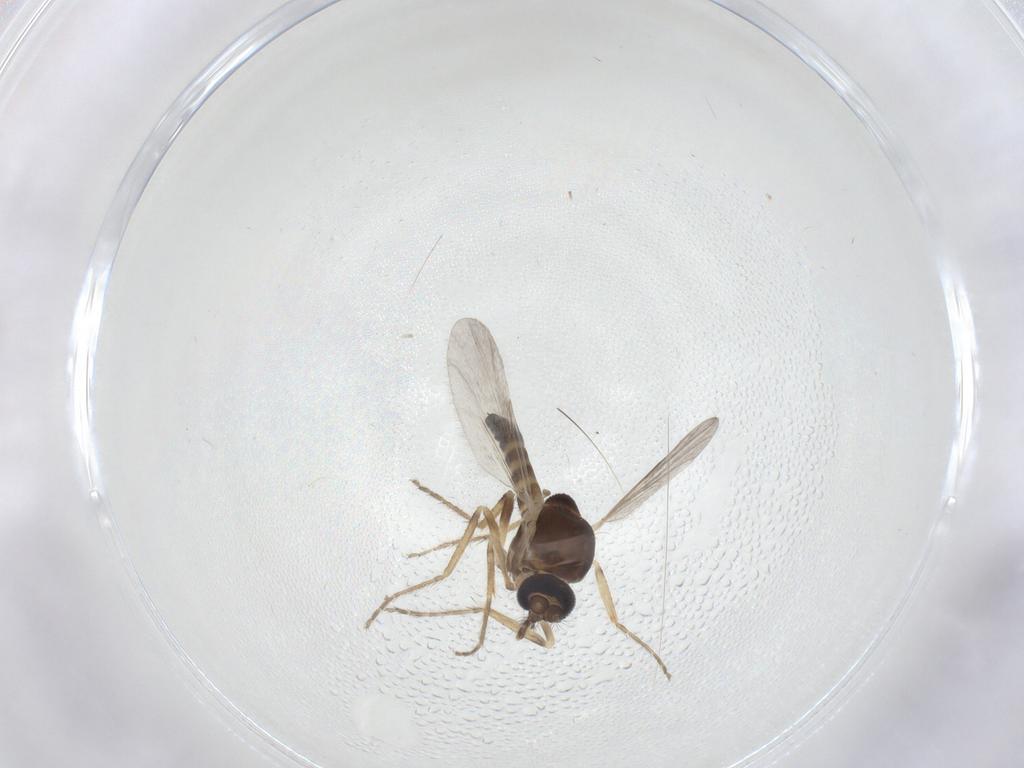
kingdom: Animalia
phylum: Arthropoda
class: Insecta
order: Diptera
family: Ceratopogonidae
